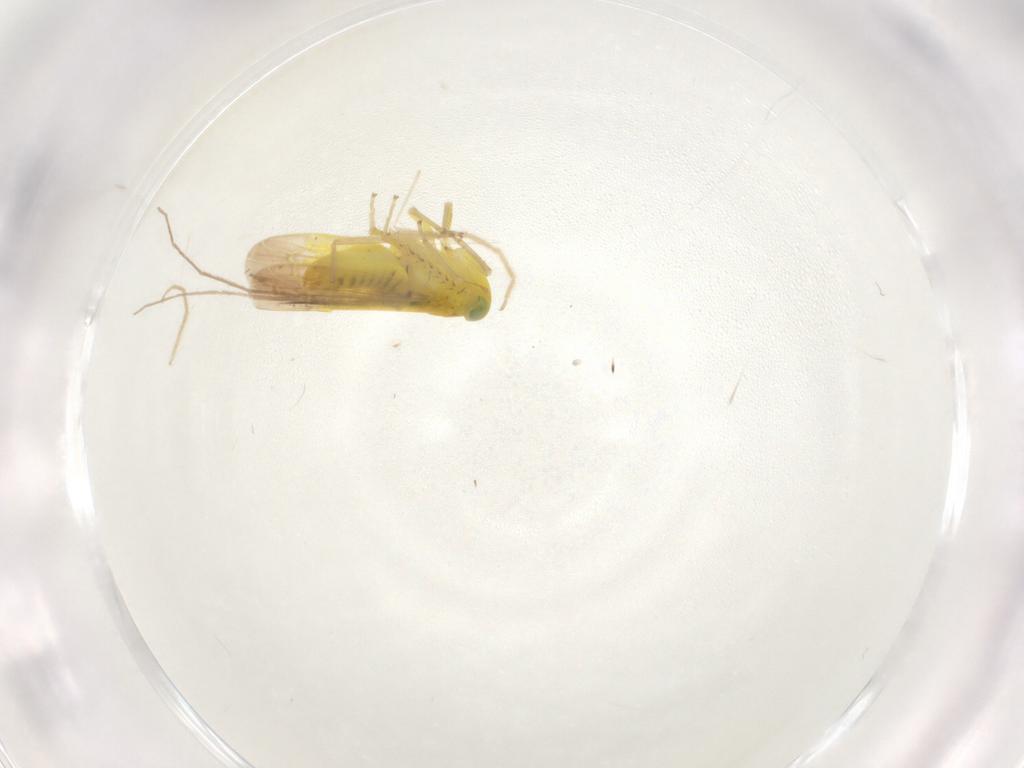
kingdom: Animalia
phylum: Arthropoda
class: Insecta
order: Hemiptera
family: Cicadellidae
